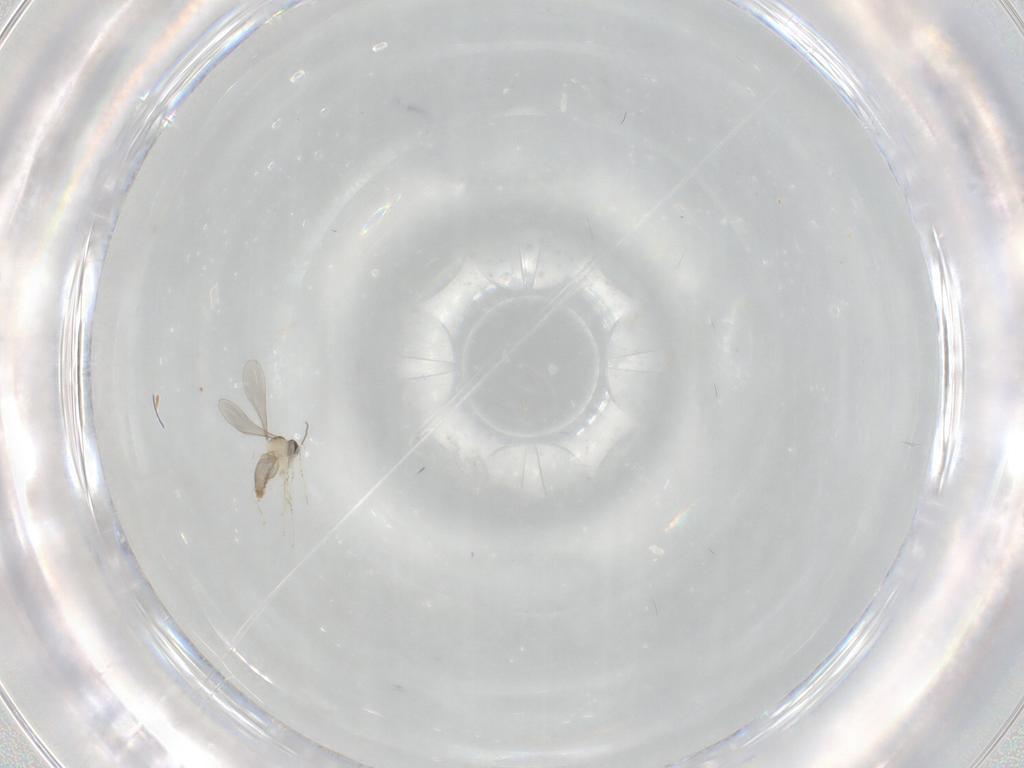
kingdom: Animalia
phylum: Arthropoda
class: Insecta
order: Diptera
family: Cecidomyiidae
